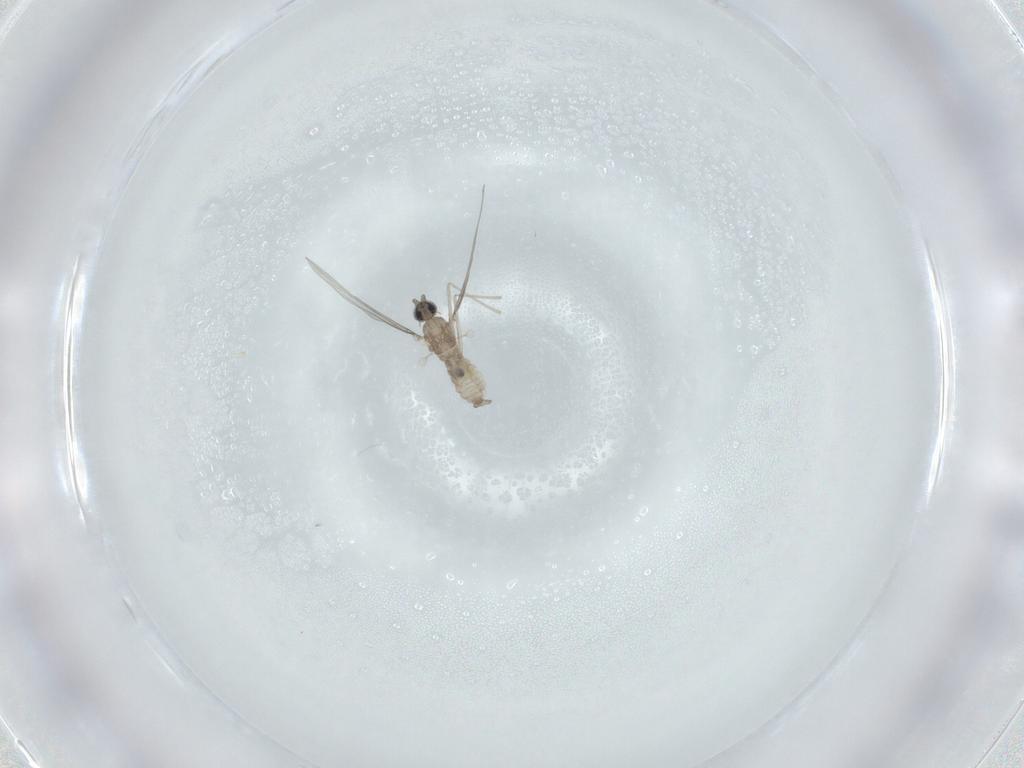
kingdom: Animalia
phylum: Arthropoda
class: Insecta
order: Diptera
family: Cecidomyiidae
